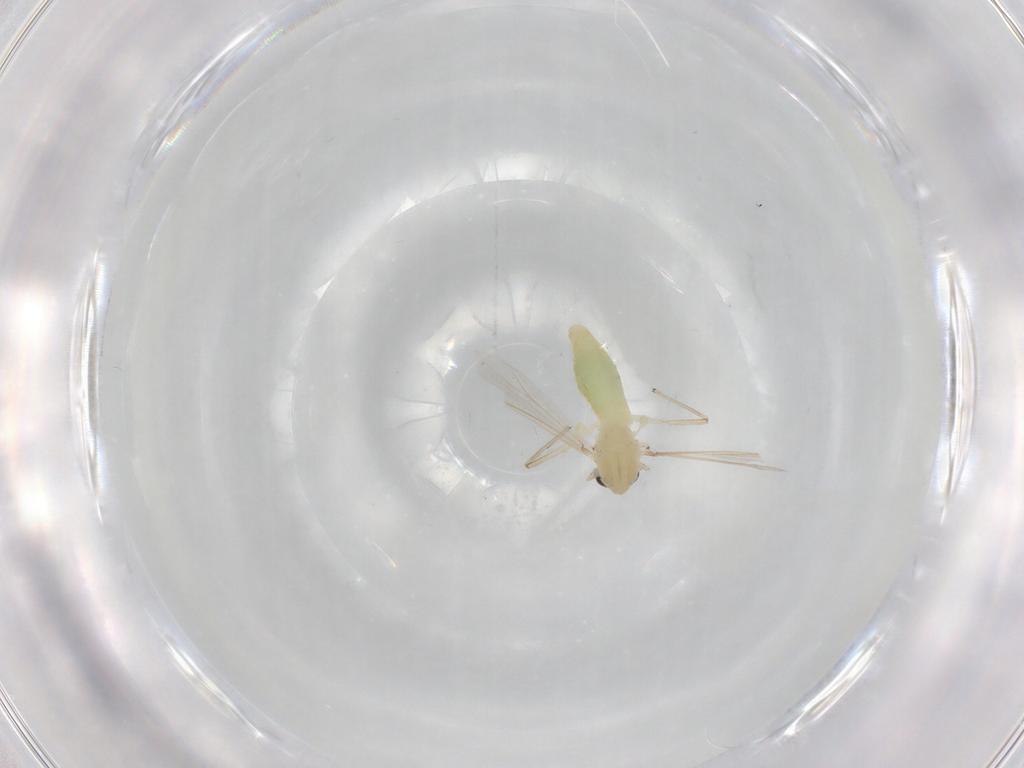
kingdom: Animalia
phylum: Arthropoda
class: Insecta
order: Diptera
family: Chironomidae
